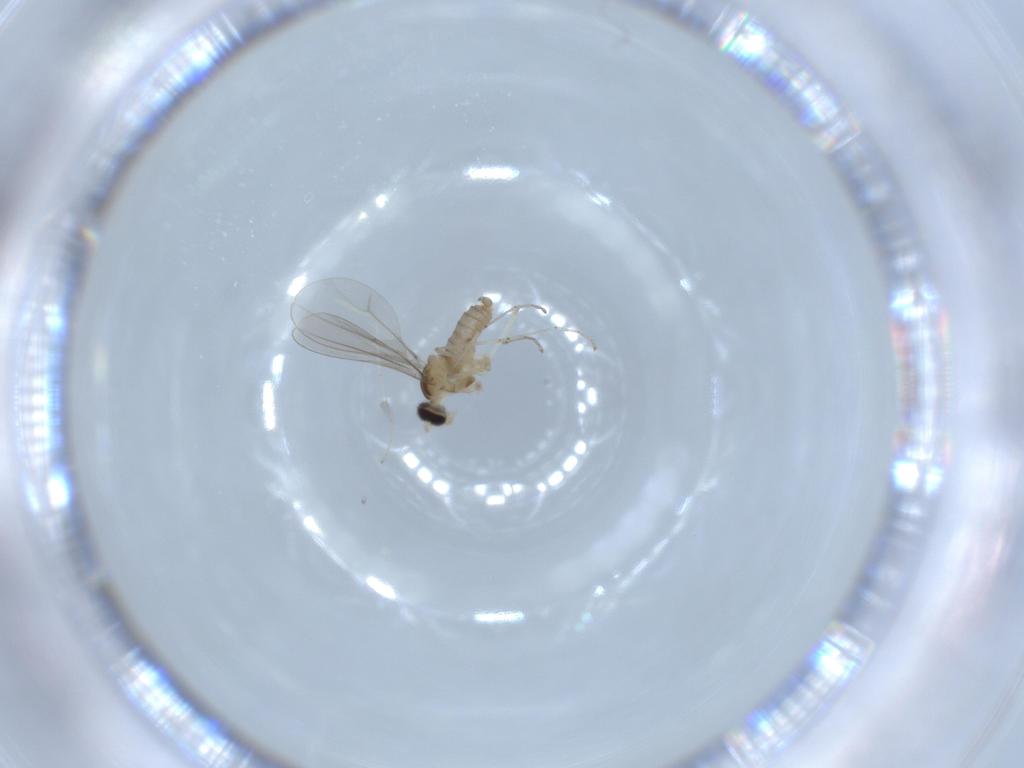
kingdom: Animalia
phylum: Arthropoda
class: Insecta
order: Diptera
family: Cecidomyiidae
